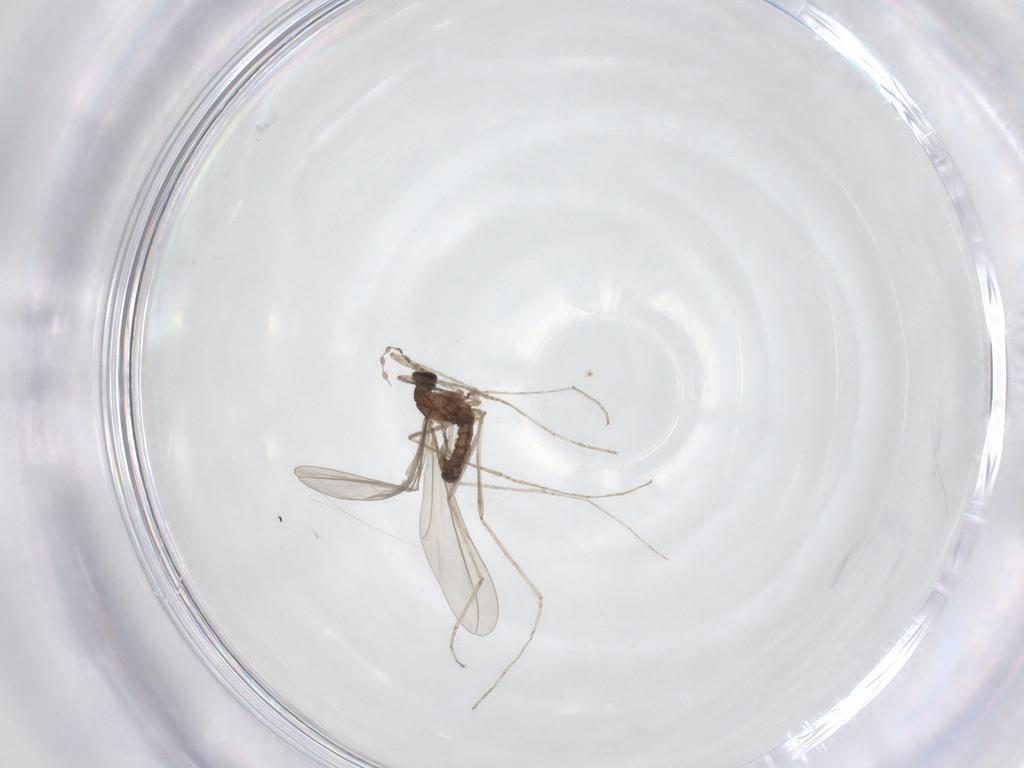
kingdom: Animalia
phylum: Arthropoda
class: Insecta
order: Diptera
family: Cecidomyiidae
